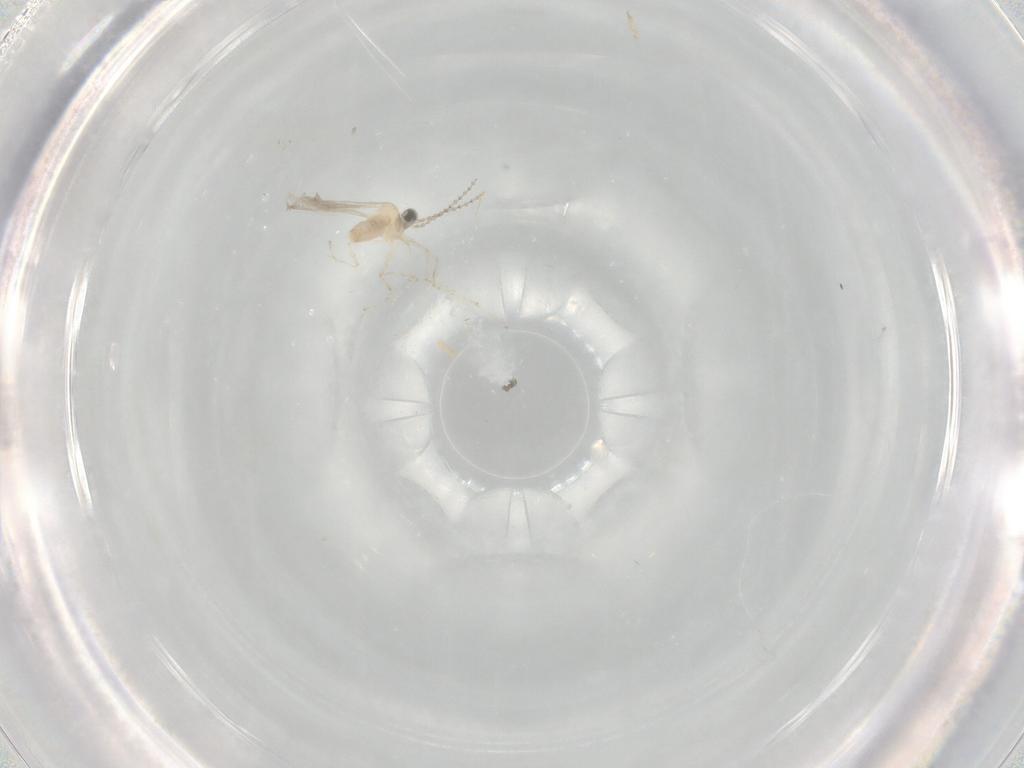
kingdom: Animalia
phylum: Arthropoda
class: Insecta
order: Diptera
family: Cecidomyiidae
